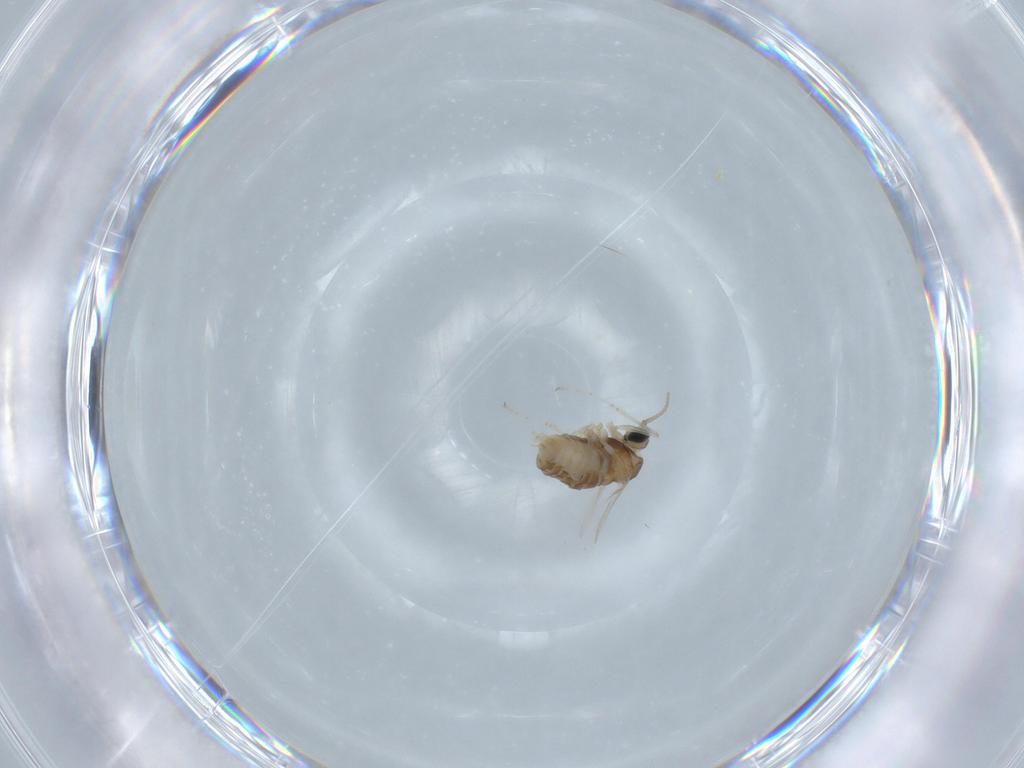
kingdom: Animalia
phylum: Arthropoda
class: Insecta
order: Diptera
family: Cecidomyiidae
